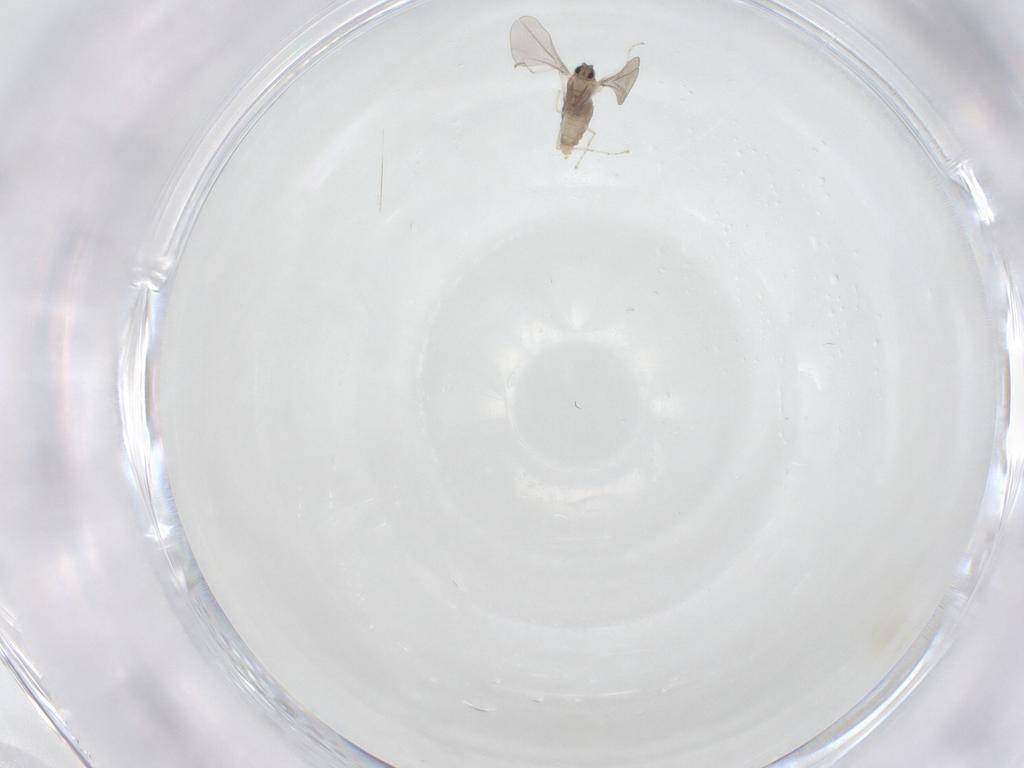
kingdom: Animalia
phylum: Arthropoda
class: Insecta
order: Diptera
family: Cecidomyiidae
